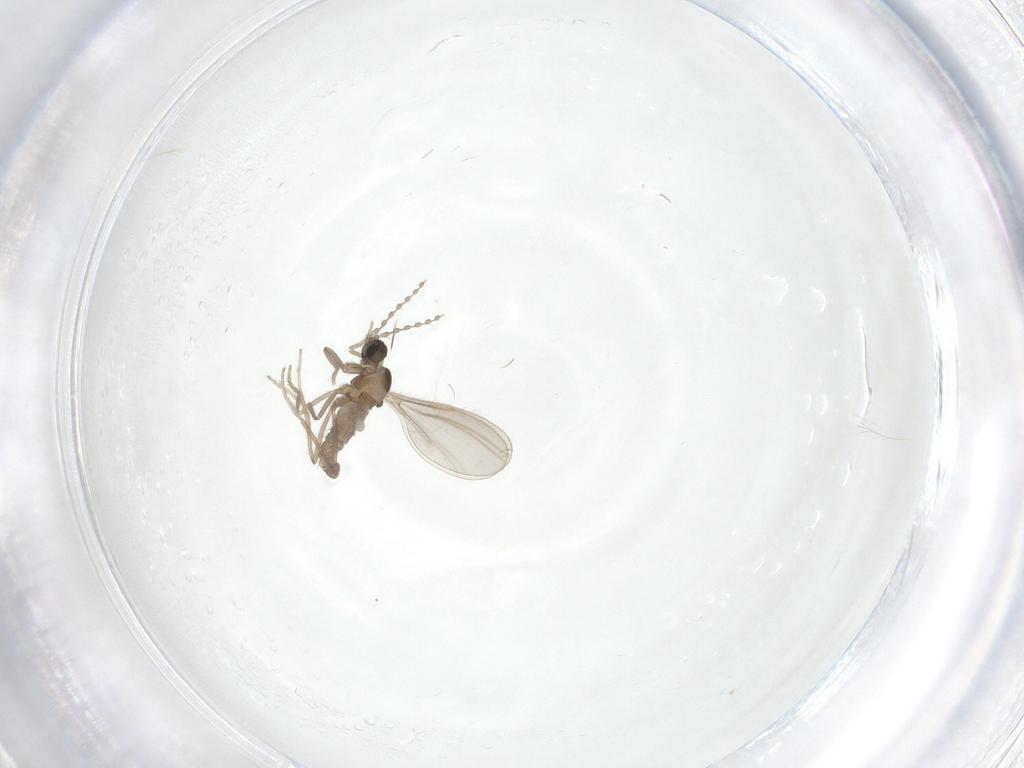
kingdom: Animalia
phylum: Arthropoda
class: Insecta
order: Diptera
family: Cecidomyiidae
